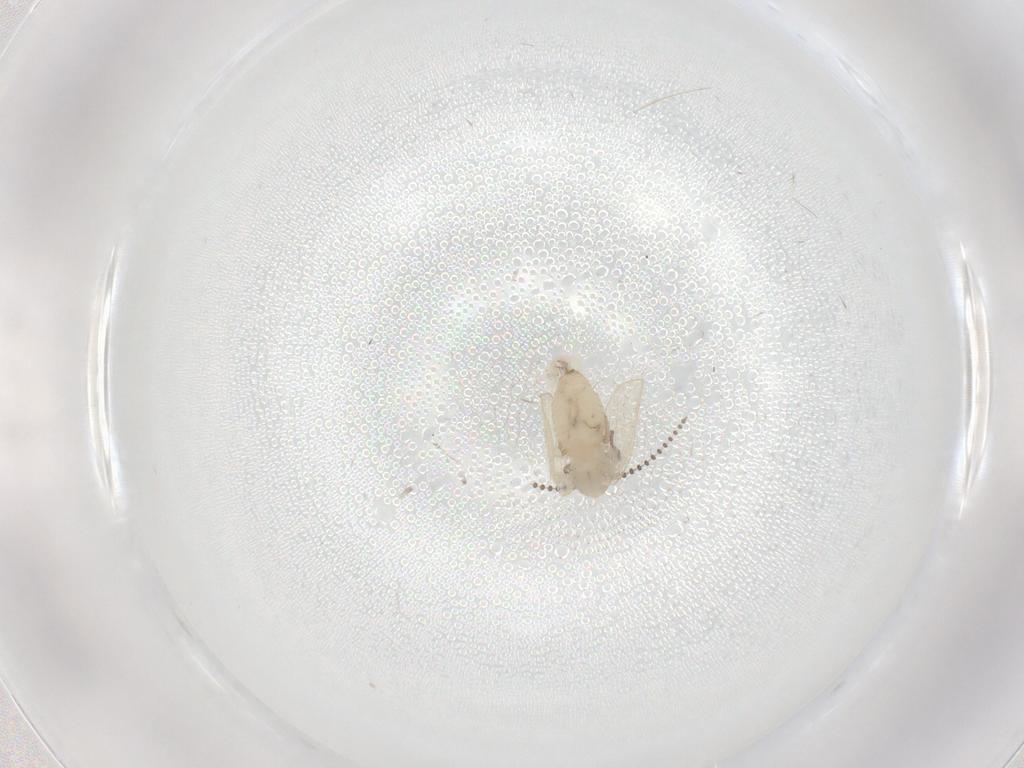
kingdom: Animalia
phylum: Arthropoda
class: Insecta
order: Diptera
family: Psychodidae
